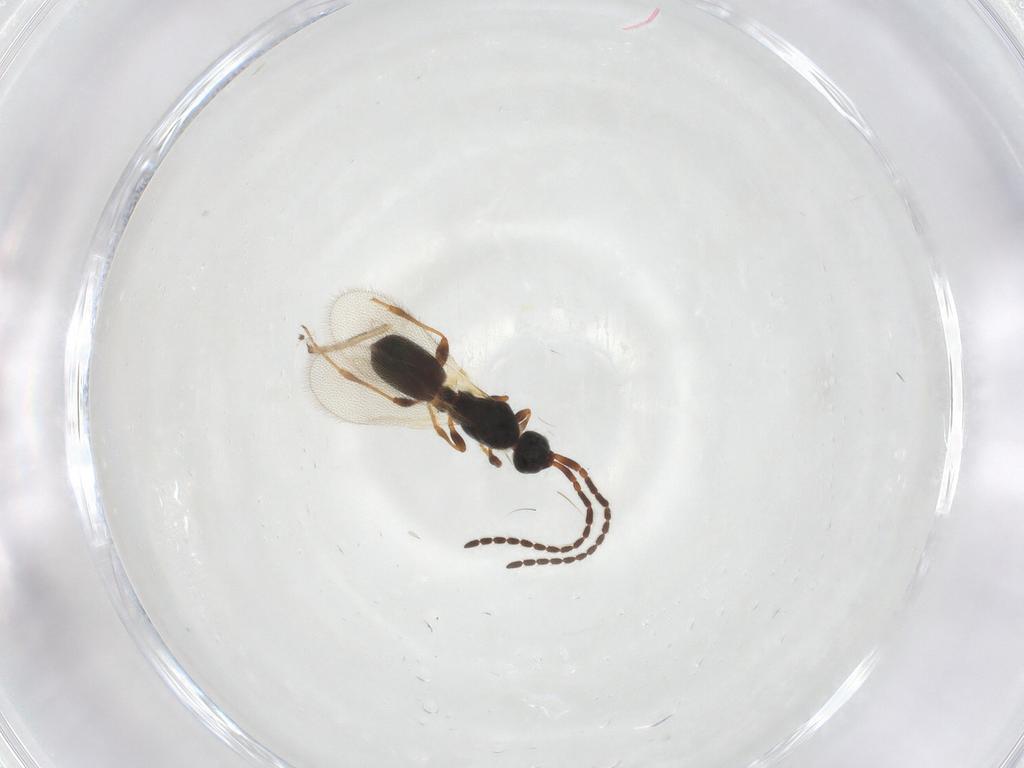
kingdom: Animalia
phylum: Arthropoda
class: Insecta
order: Hymenoptera
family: Diapriidae
